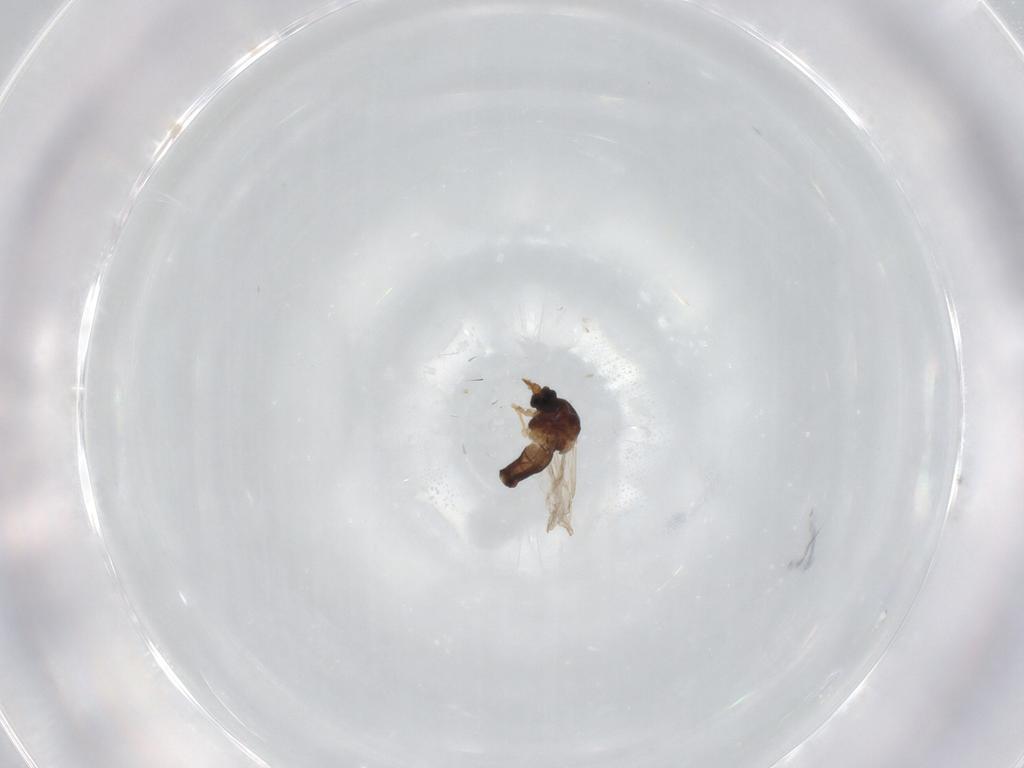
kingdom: Animalia
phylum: Arthropoda
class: Insecta
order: Diptera
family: Ceratopogonidae
